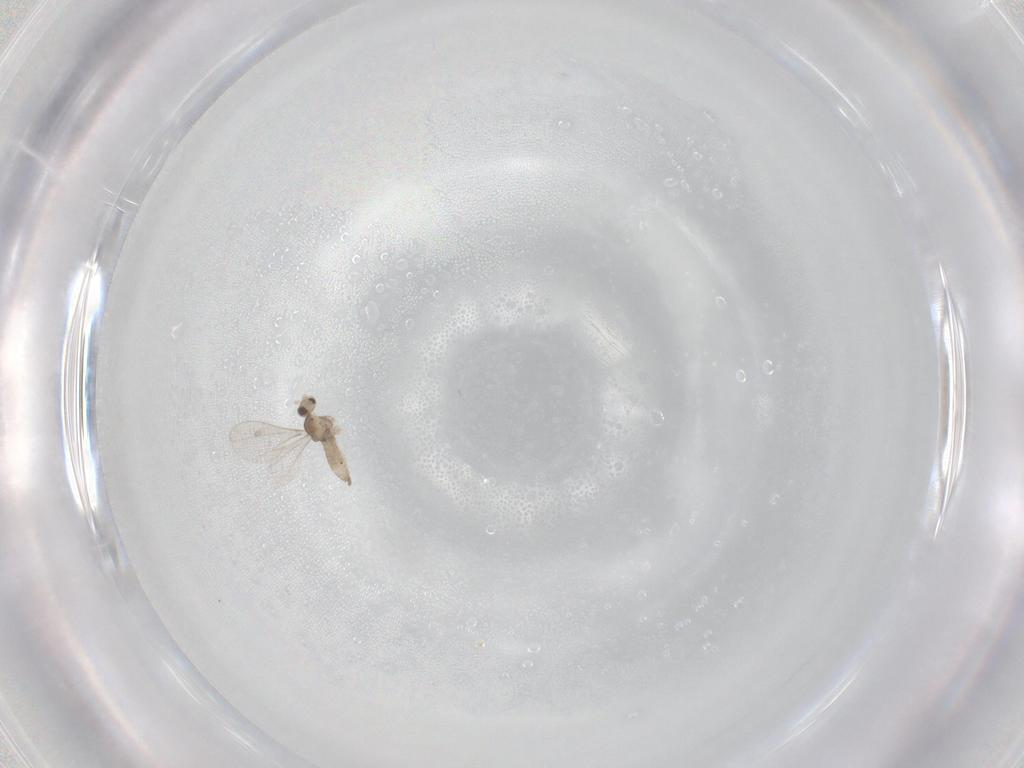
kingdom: Animalia
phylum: Arthropoda
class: Insecta
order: Diptera
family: Cecidomyiidae
